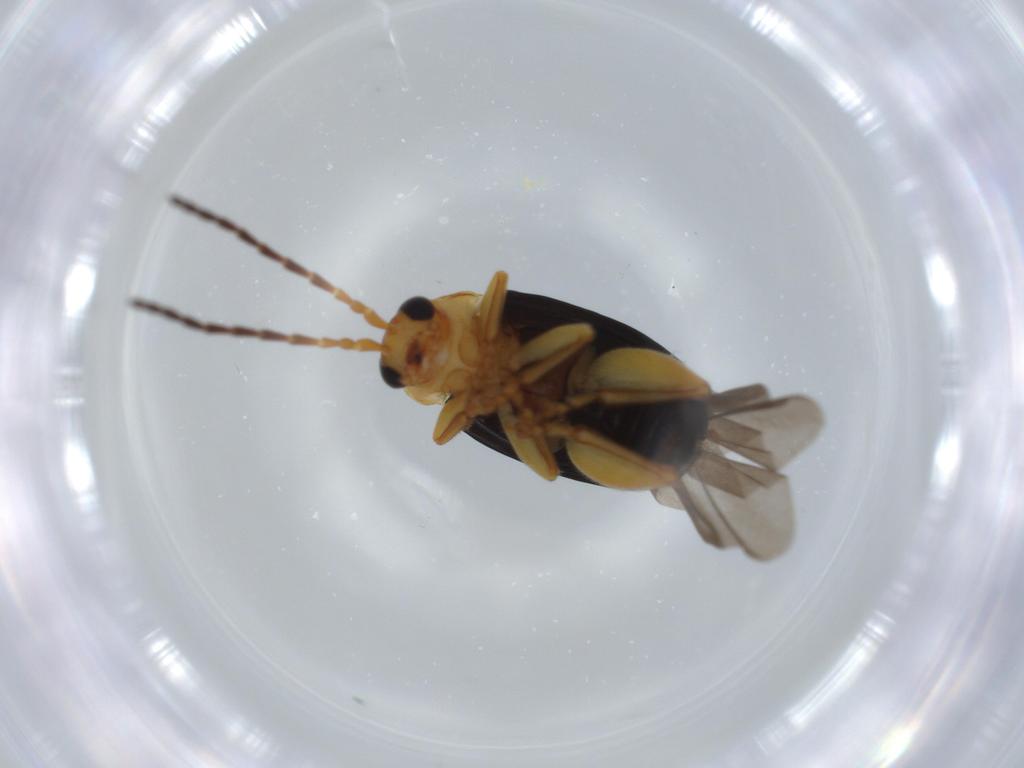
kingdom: Animalia
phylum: Arthropoda
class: Insecta
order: Coleoptera
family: Chrysomelidae
